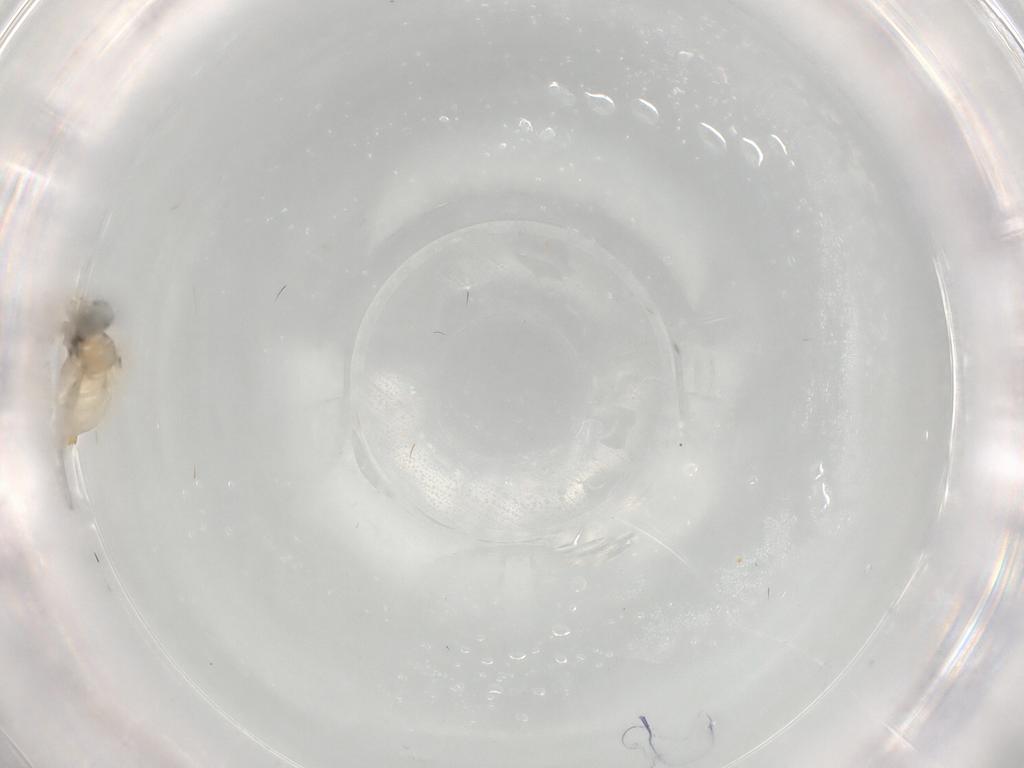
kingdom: Animalia
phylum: Arthropoda
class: Insecta
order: Diptera
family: Cecidomyiidae
